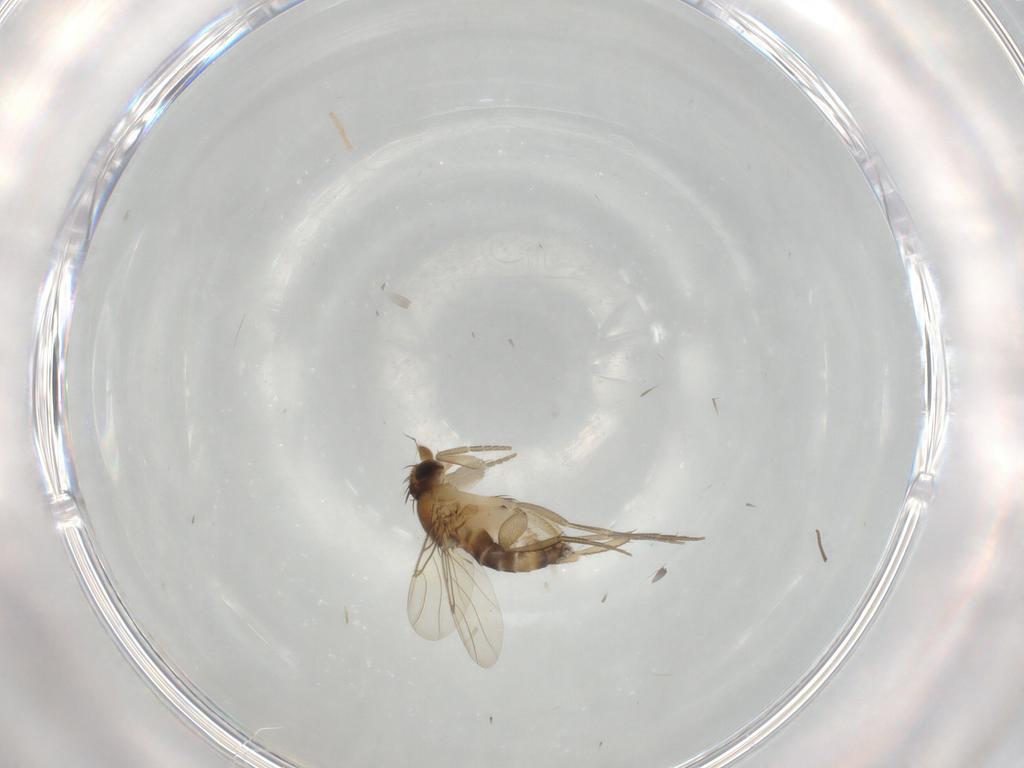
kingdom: Animalia
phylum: Arthropoda
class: Insecta
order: Diptera
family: Phoridae
